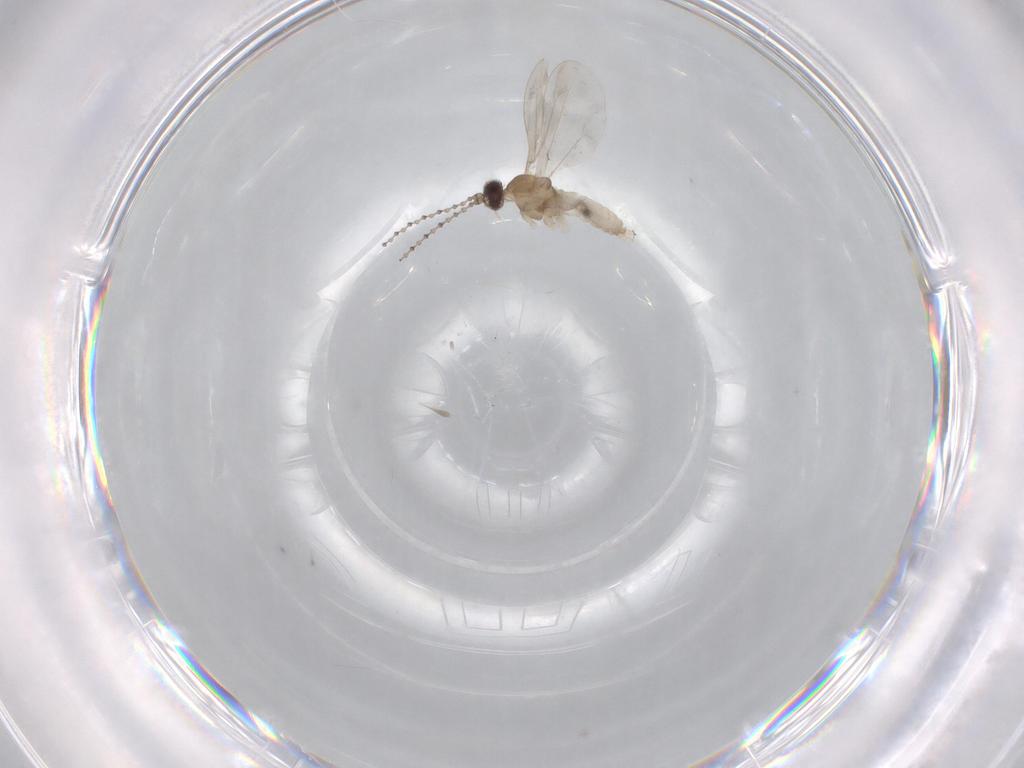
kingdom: Animalia
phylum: Arthropoda
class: Insecta
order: Diptera
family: Cecidomyiidae
